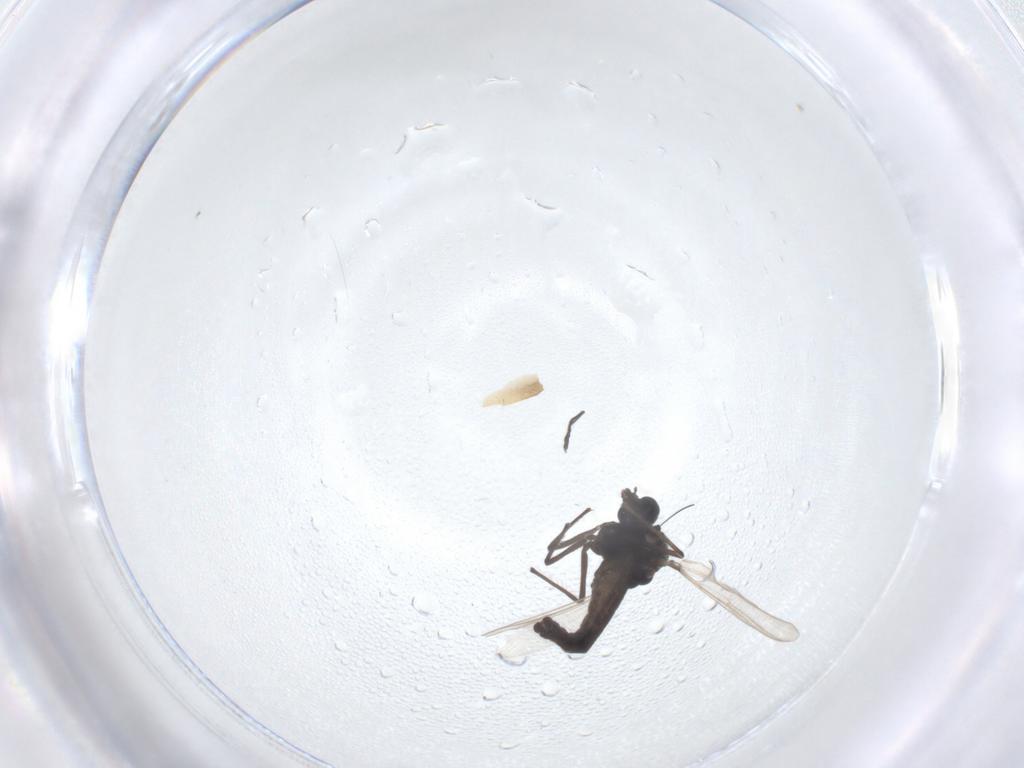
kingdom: Animalia
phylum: Arthropoda
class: Insecta
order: Diptera
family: Chironomidae
